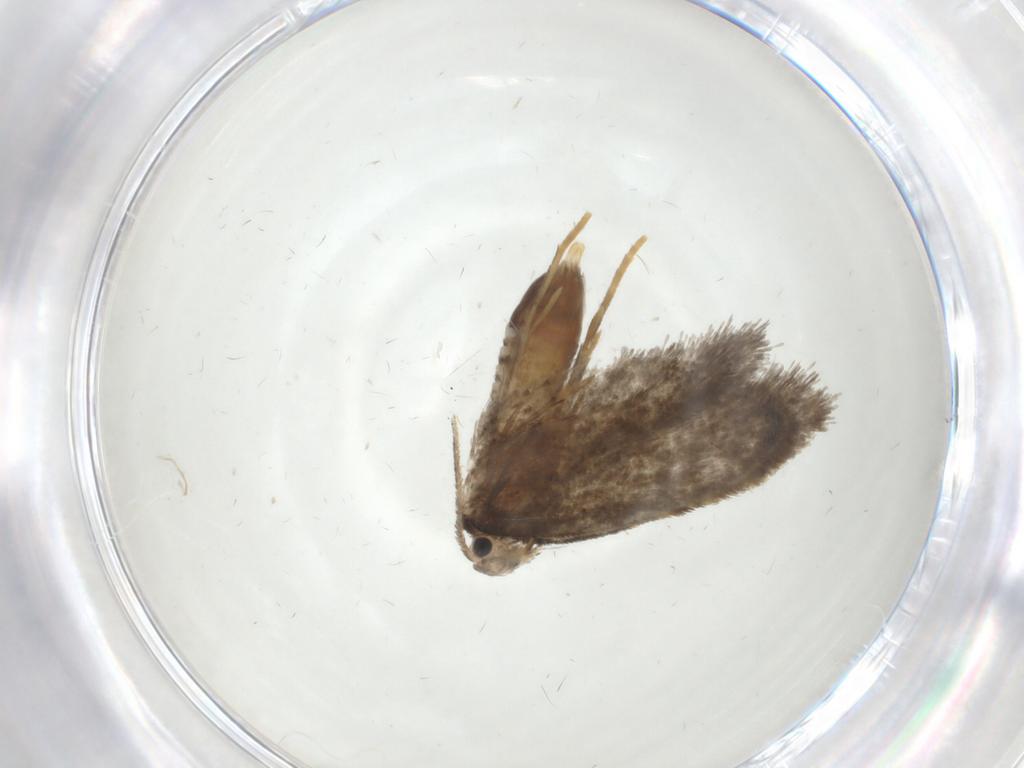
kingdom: Animalia
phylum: Arthropoda
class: Insecta
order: Lepidoptera
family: Psychidae
